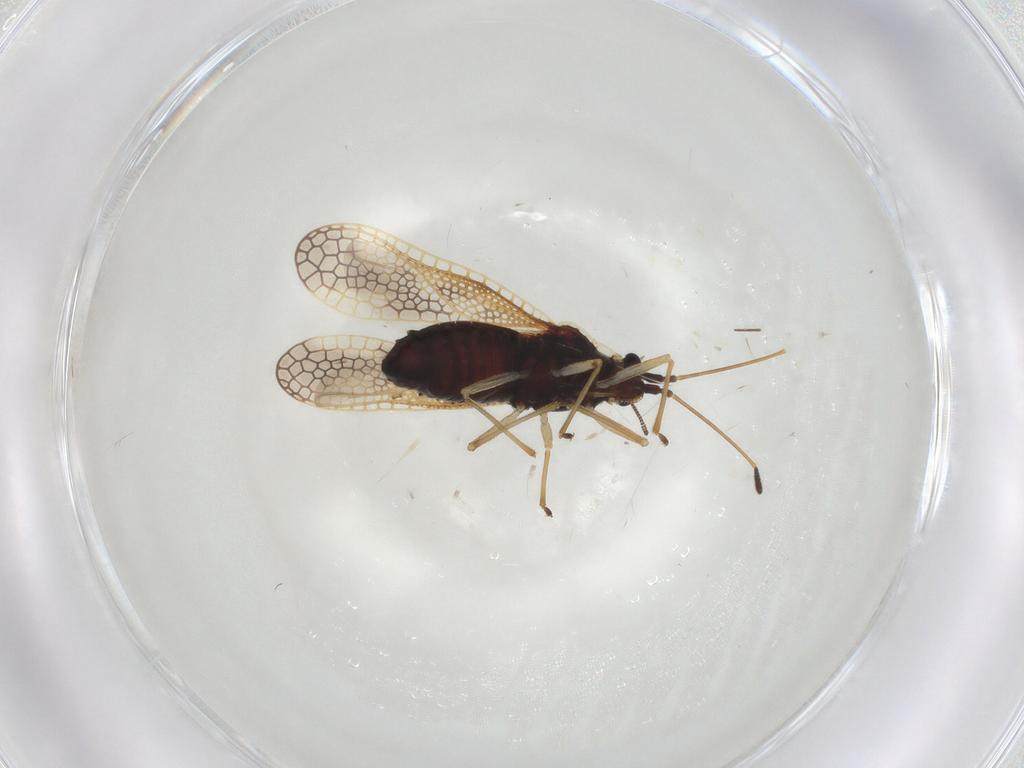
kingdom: Animalia
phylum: Arthropoda
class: Insecta
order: Hemiptera
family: Tingidae
